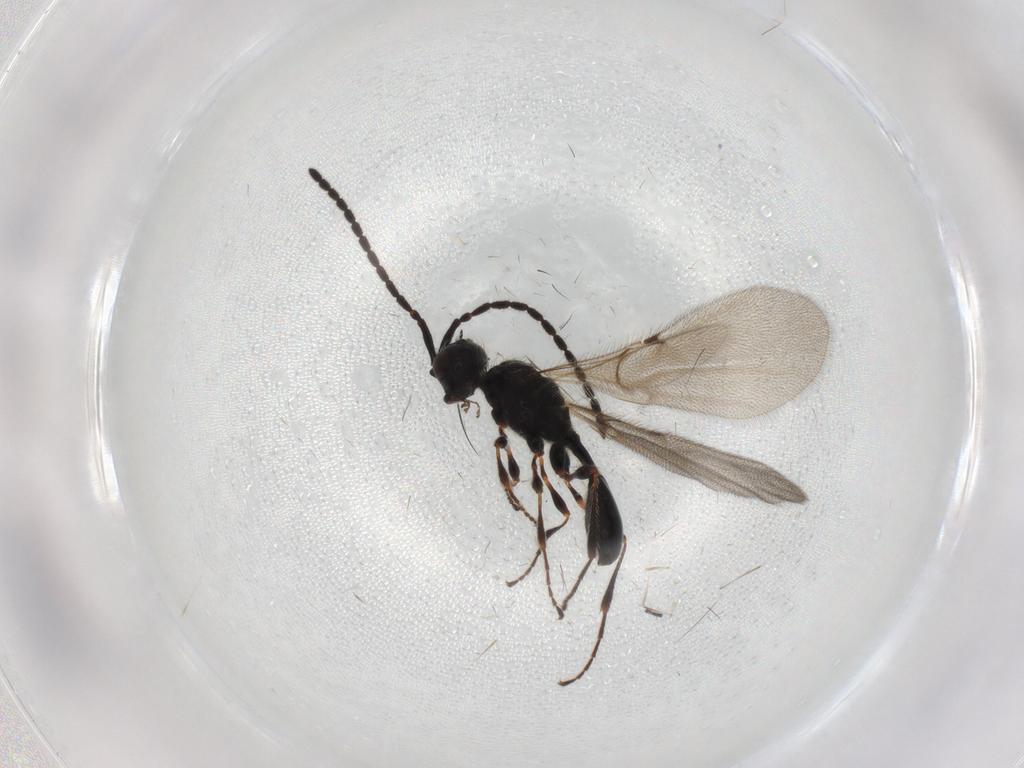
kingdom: Animalia
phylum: Arthropoda
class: Insecta
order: Hymenoptera
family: Diapriidae
